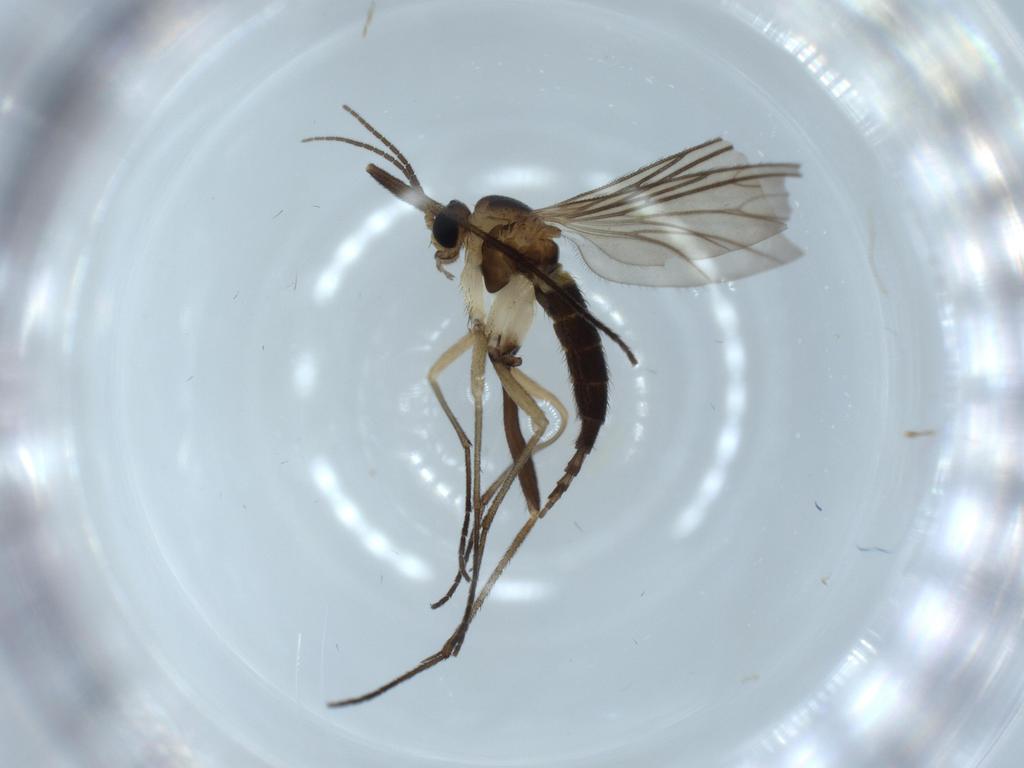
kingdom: Animalia
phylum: Arthropoda
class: Insecta
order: Diptera
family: Sciaridae
